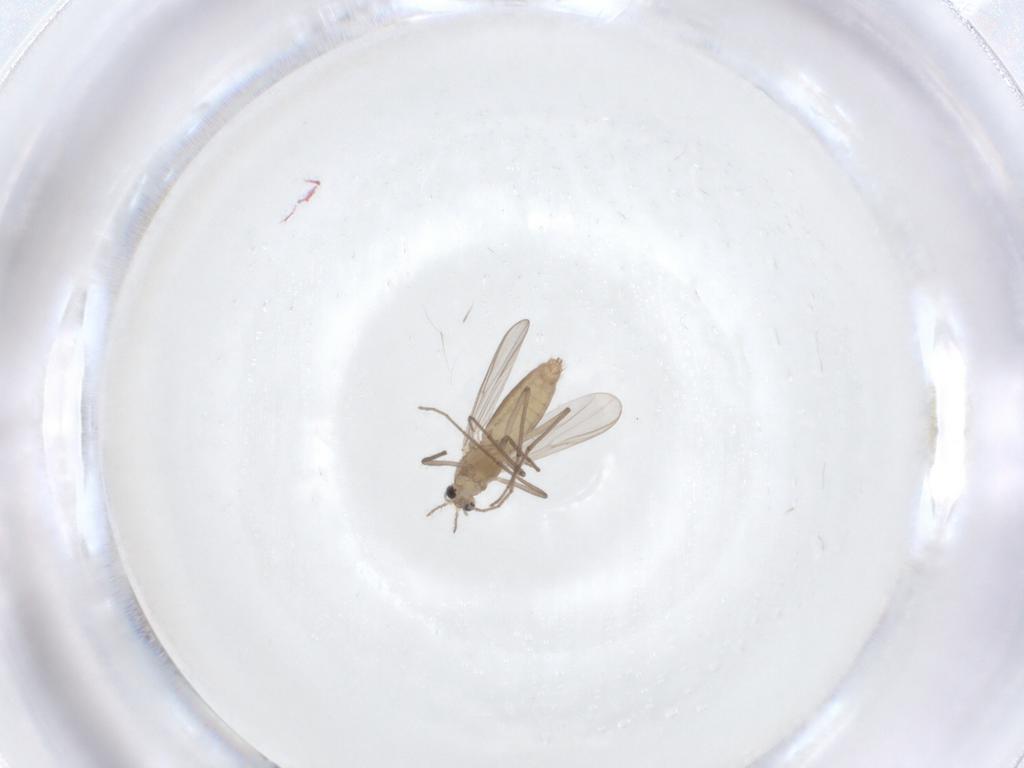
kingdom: Animalia
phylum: Arthropoda
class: Insecta
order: Diptera
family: Chironomidae
